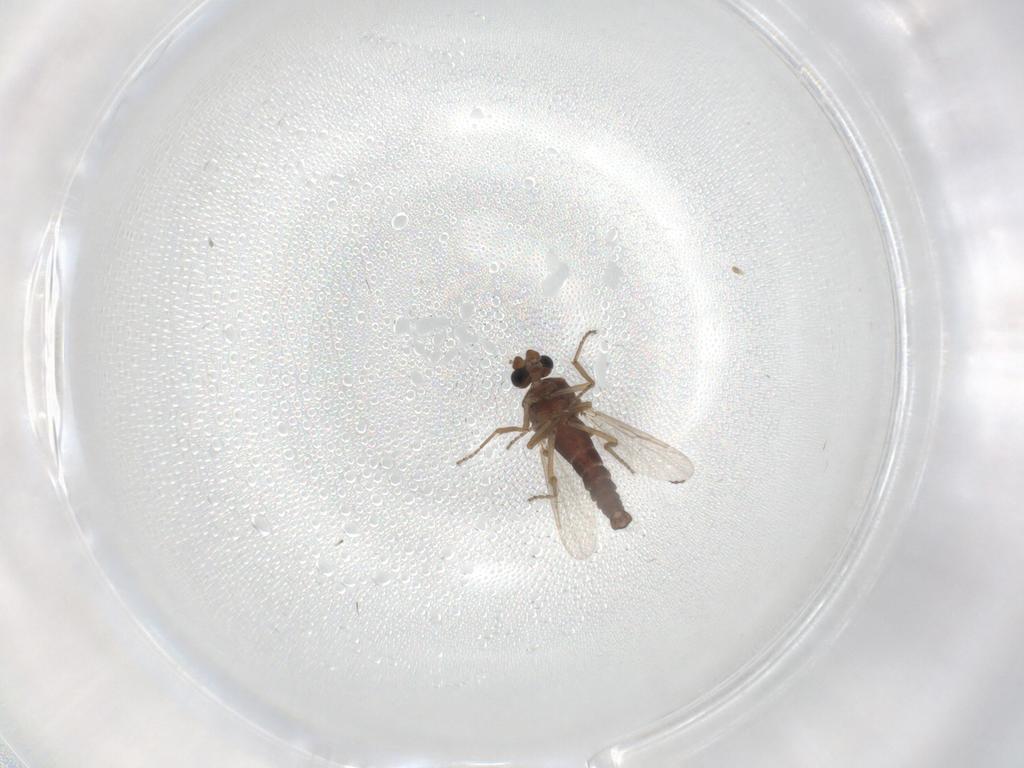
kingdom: Animalia
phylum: Arthropoda
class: Insecta
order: Diptera
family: Ceratopogonidae
